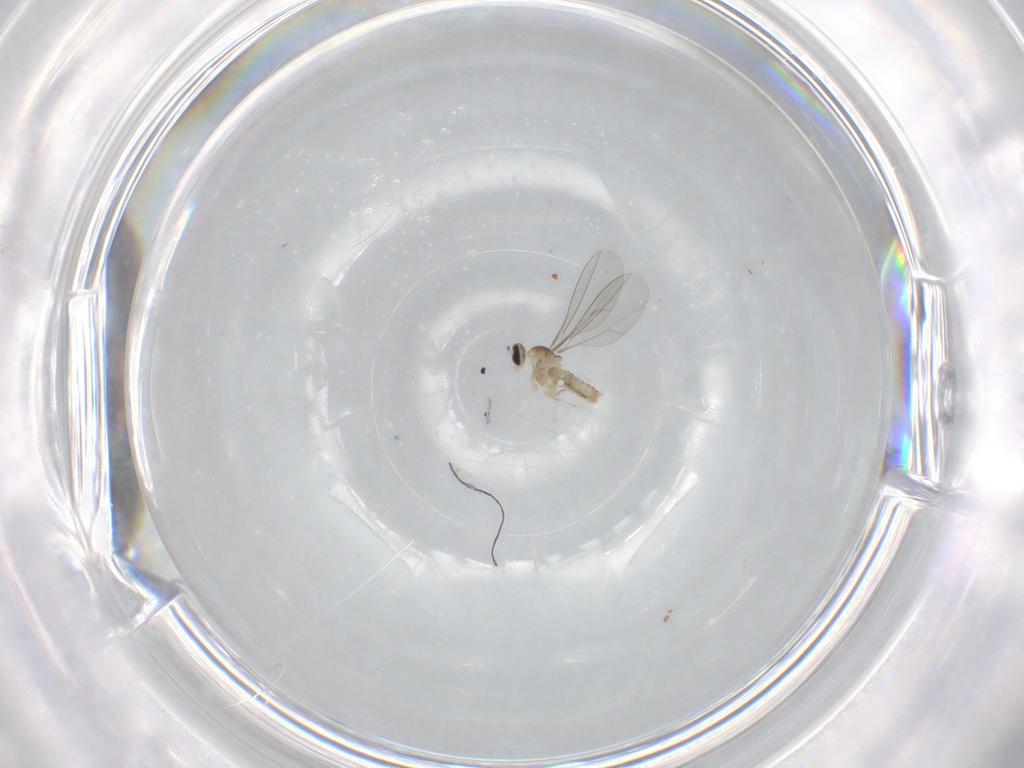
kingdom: Animalia
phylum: Arthropoda
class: Insecta
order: Diptera
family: Cecidomyiidae
